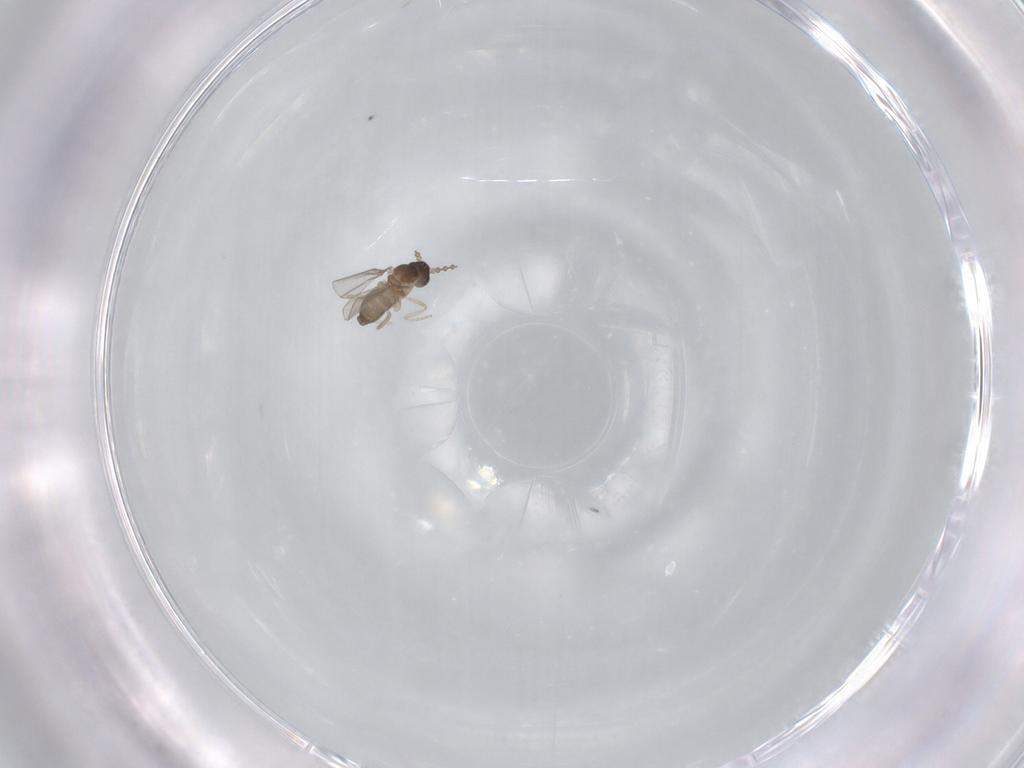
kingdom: Animalia
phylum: Arthropoda
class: Insecta
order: Diptera
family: Cecidomyiidae
